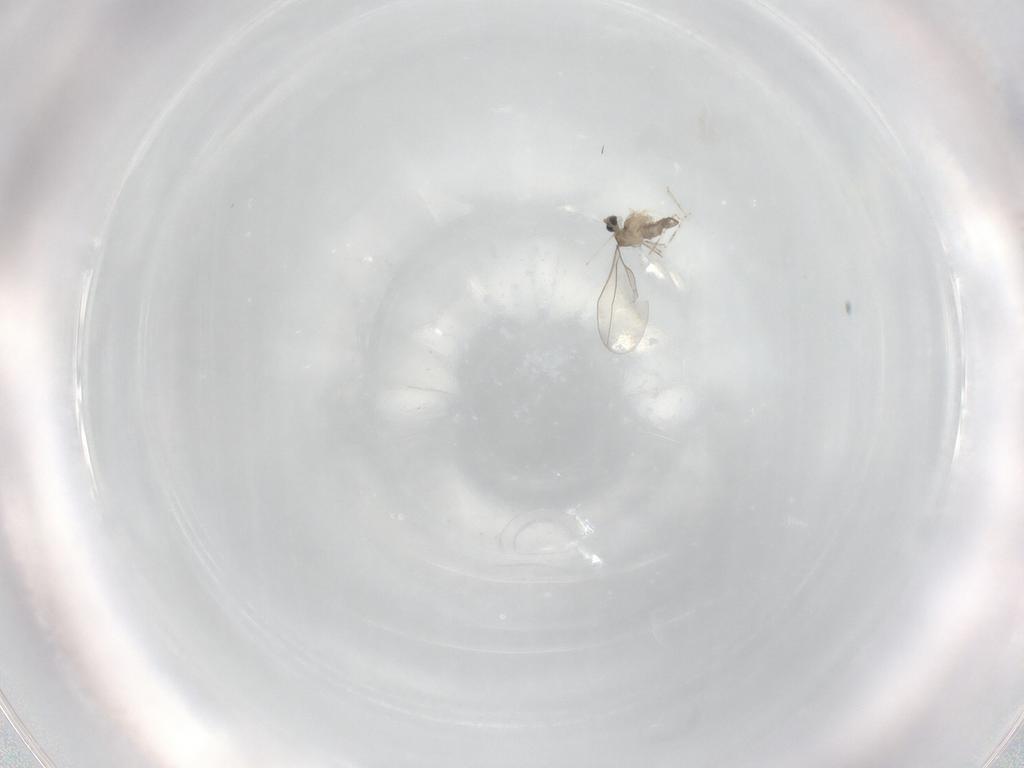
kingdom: Animalia
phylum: Arthropoda
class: Insecta
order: Diptera
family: Cecidomyiidae
